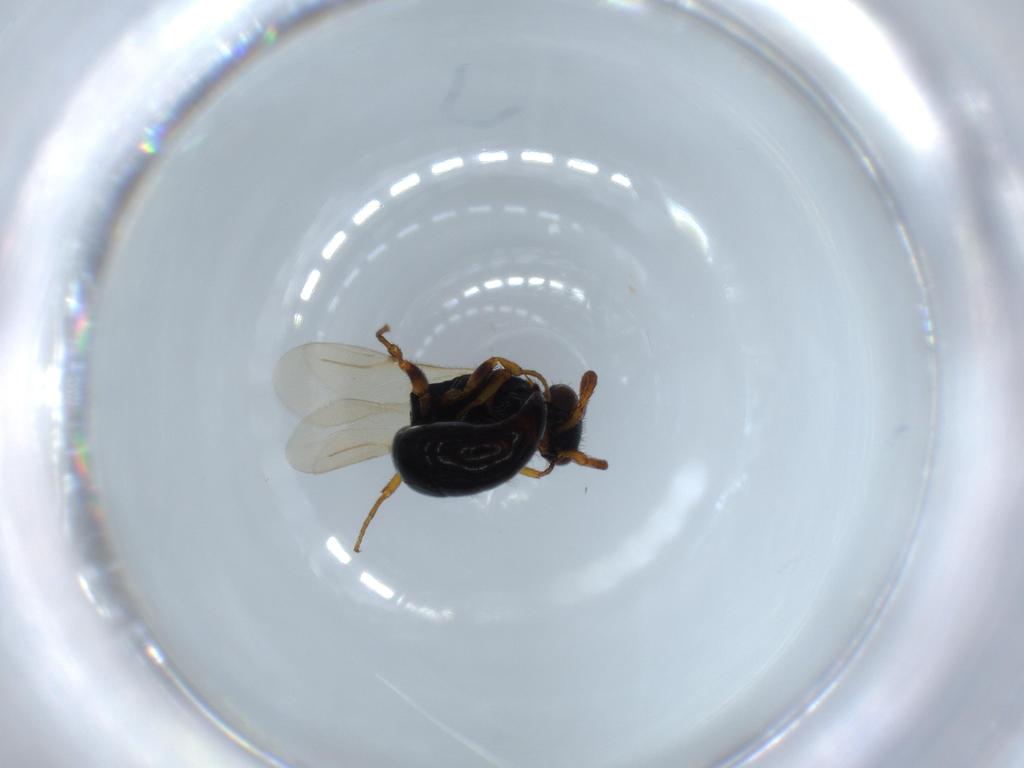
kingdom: Animalia
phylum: Arthropoda
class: Insecta
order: Hymenoptera
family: Bethylidae
